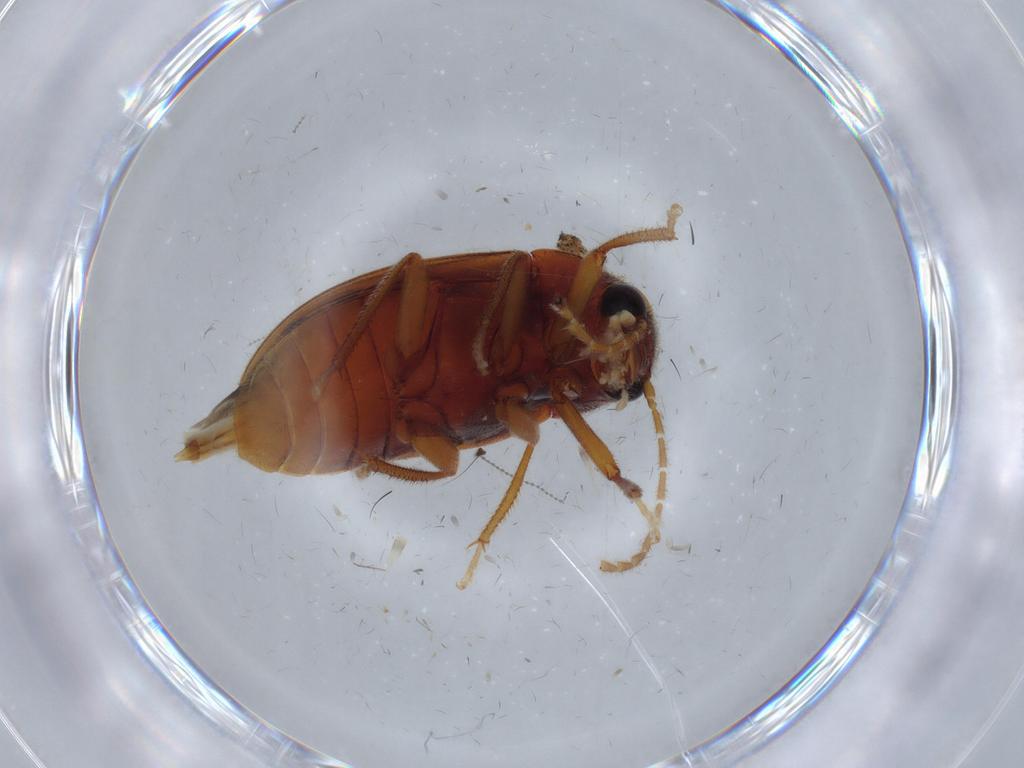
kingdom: Animalia
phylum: Arthropoda
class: Insecta
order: Coleoptera
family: Ptilodactylidae
